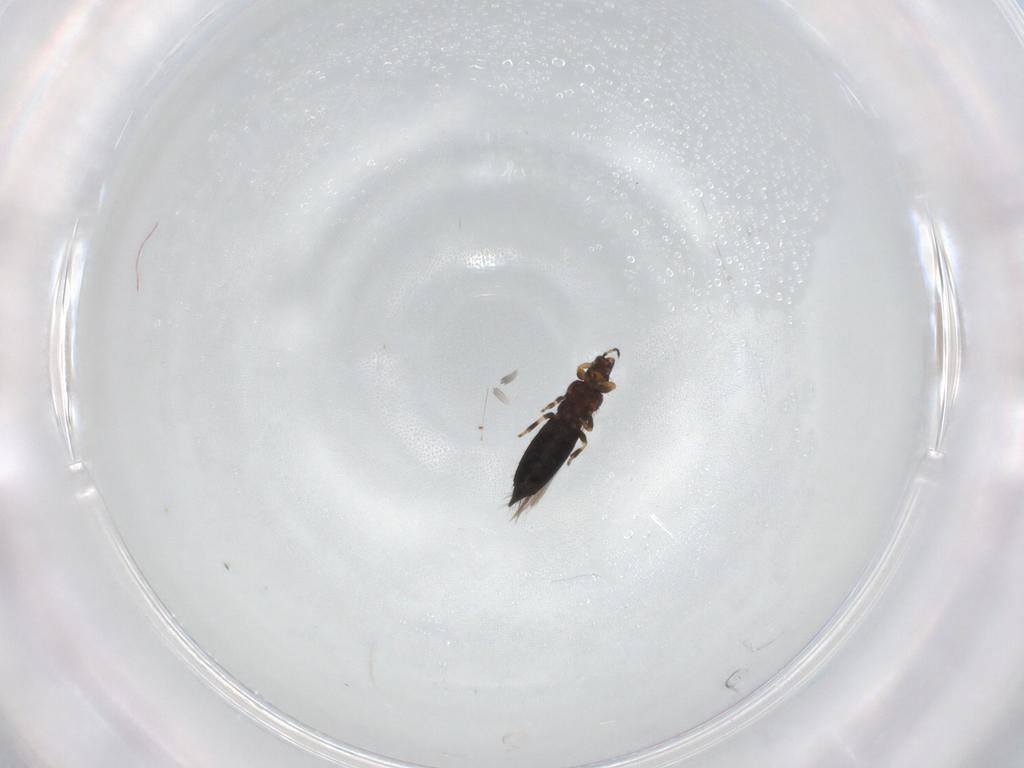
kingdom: Animalia
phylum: Arthropoda
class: Insecta
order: Thysanoptera
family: Thripidae
